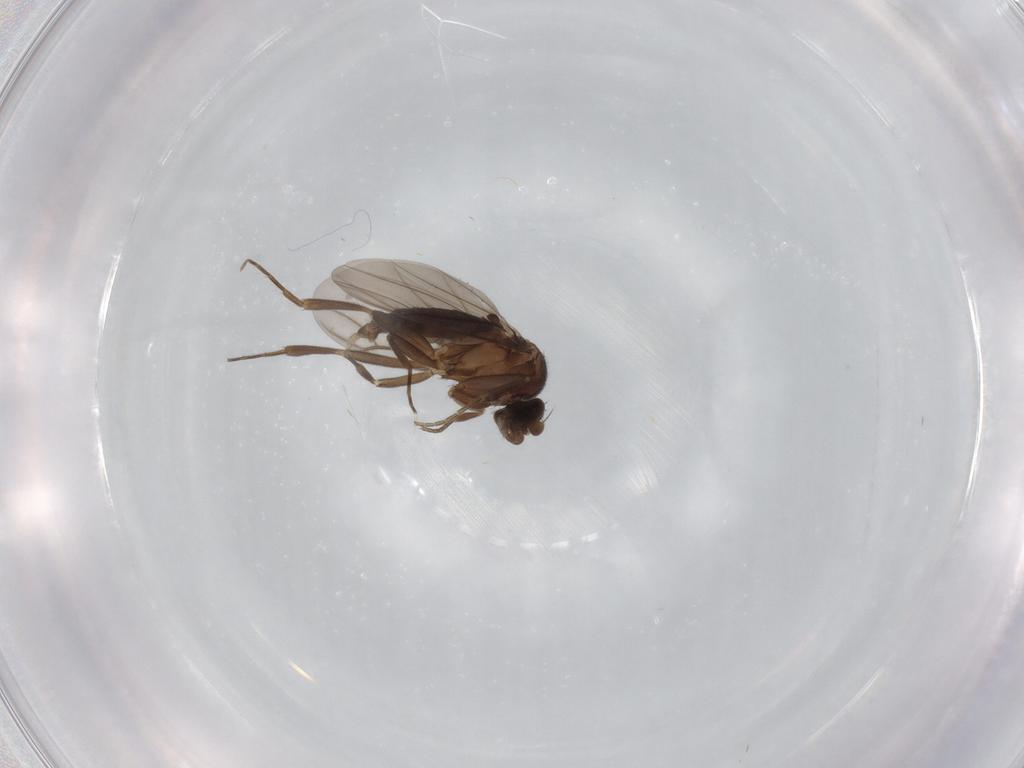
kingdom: Animalia
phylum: Arthropoda
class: Insecta
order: Diptera
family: Phoridae
